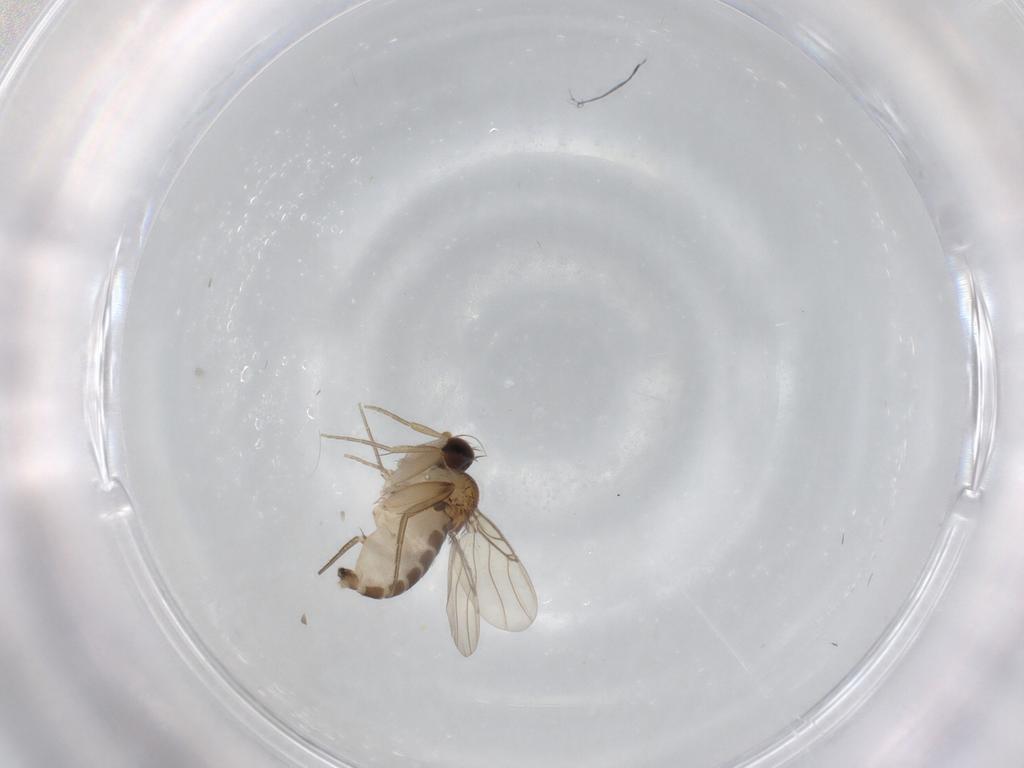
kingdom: Animalia
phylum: Arthropoda
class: Insecta
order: Diptera
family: Phoridae
